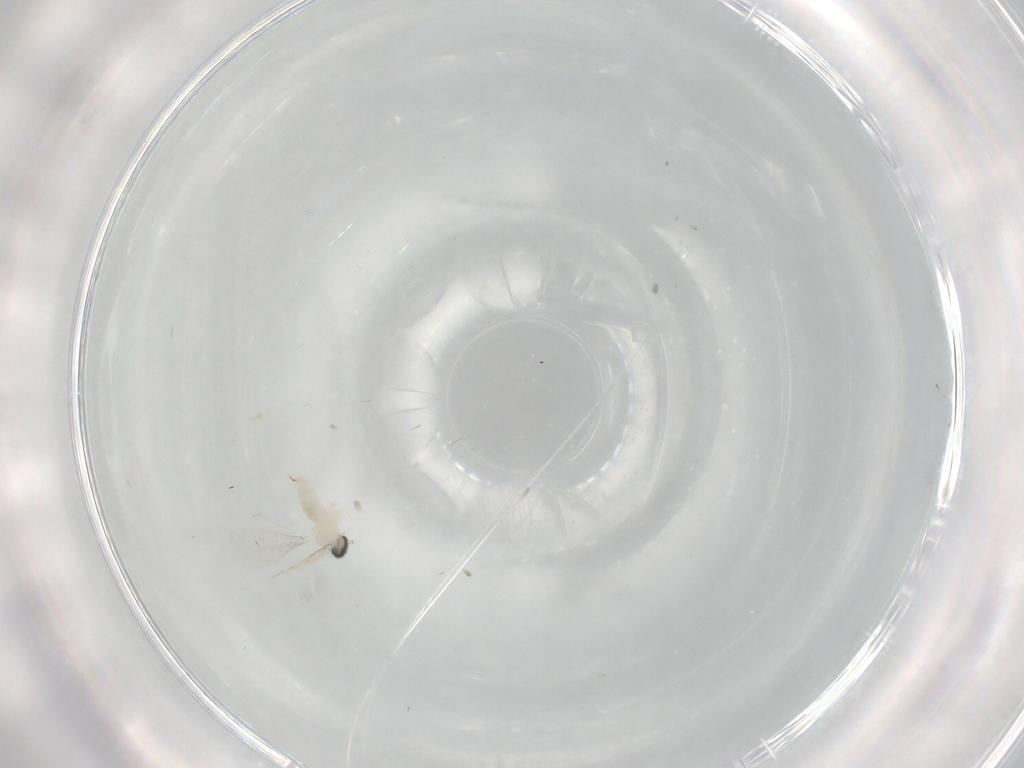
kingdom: Animalia
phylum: Arthropoda
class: Insecta
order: Diptera
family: Cecidomyiidae
